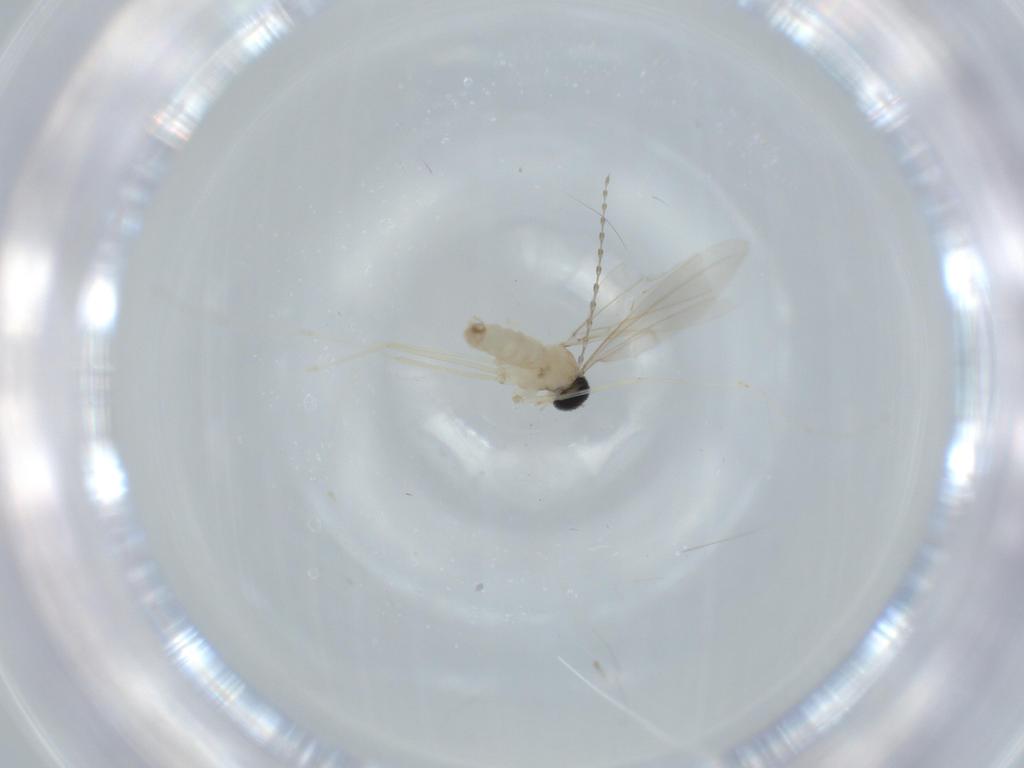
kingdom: Animalia
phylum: Arthropoda
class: Insecta
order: Diptera
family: Cecidomyiidae
